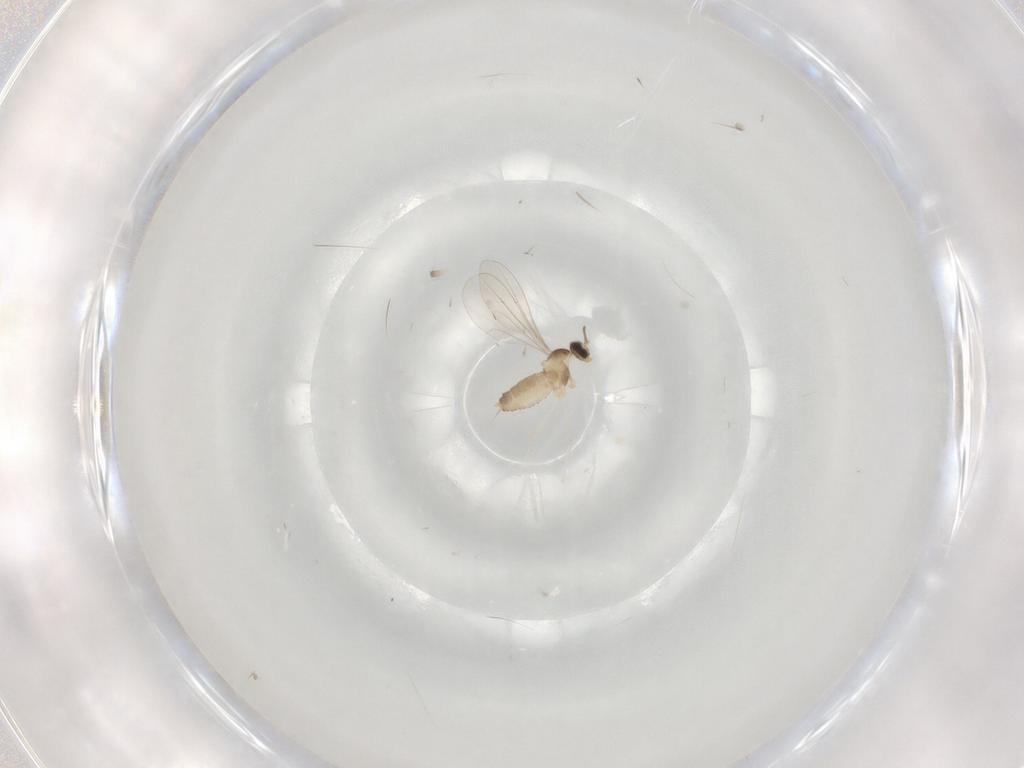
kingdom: Animalia
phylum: Arthropoda
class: Insecta
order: Diptera
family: Cecidomyiidae
